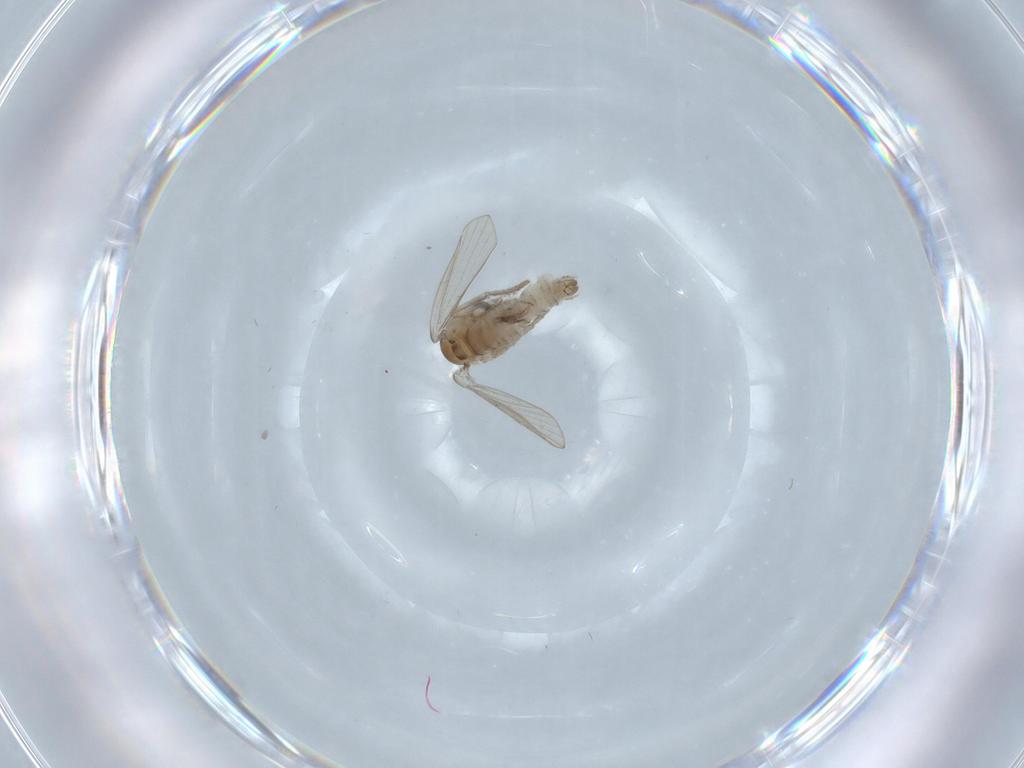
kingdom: Animalia
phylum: Arthropoda
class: Insecta
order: Diptera
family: Psychodidae
